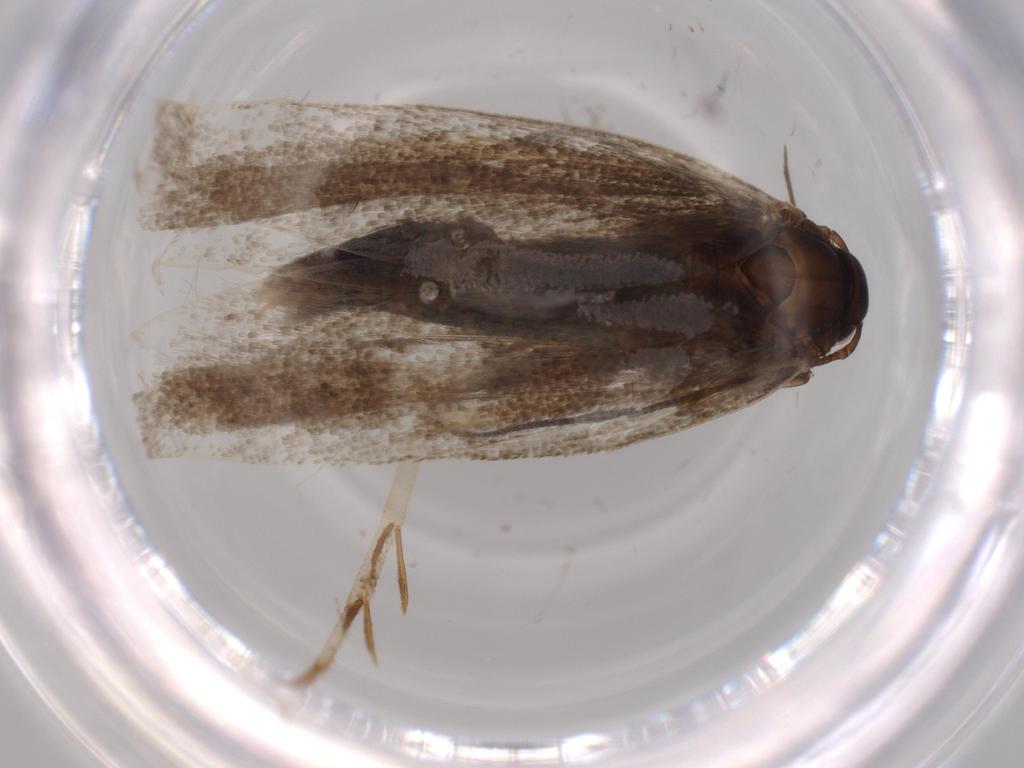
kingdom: Animalia
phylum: Arthropoda
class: Insecta
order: Lepidoptera
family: Gelechiidae
